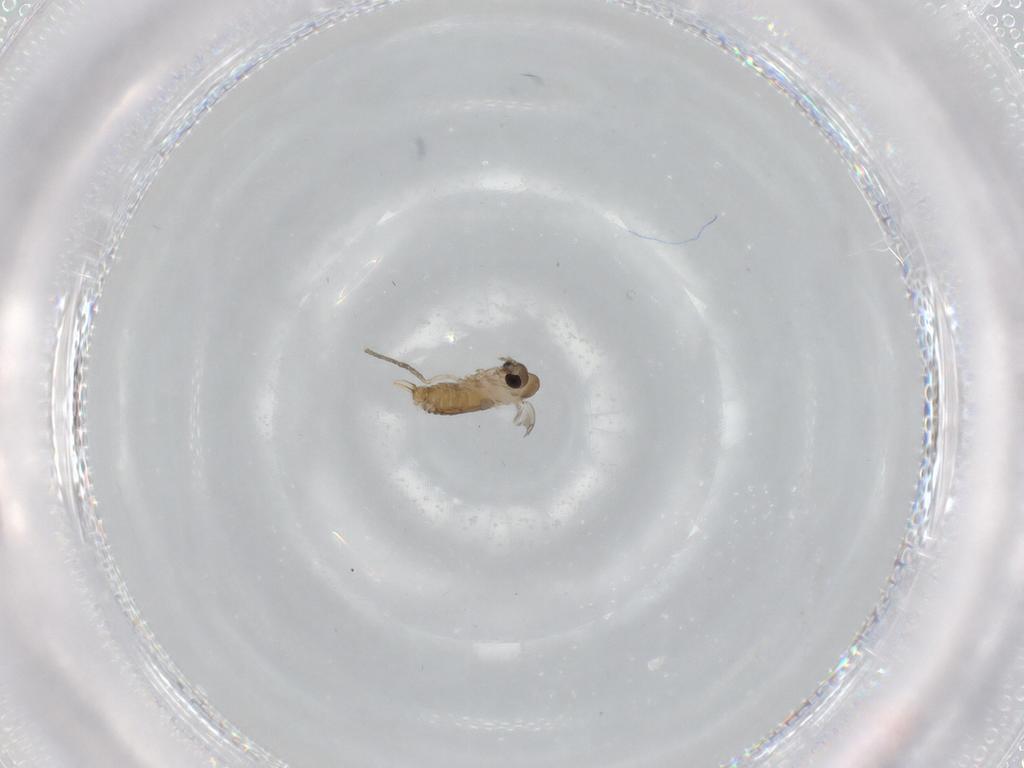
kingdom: Animalia
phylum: Arthropoda
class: Insecta
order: Diptera
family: Psychodidae
